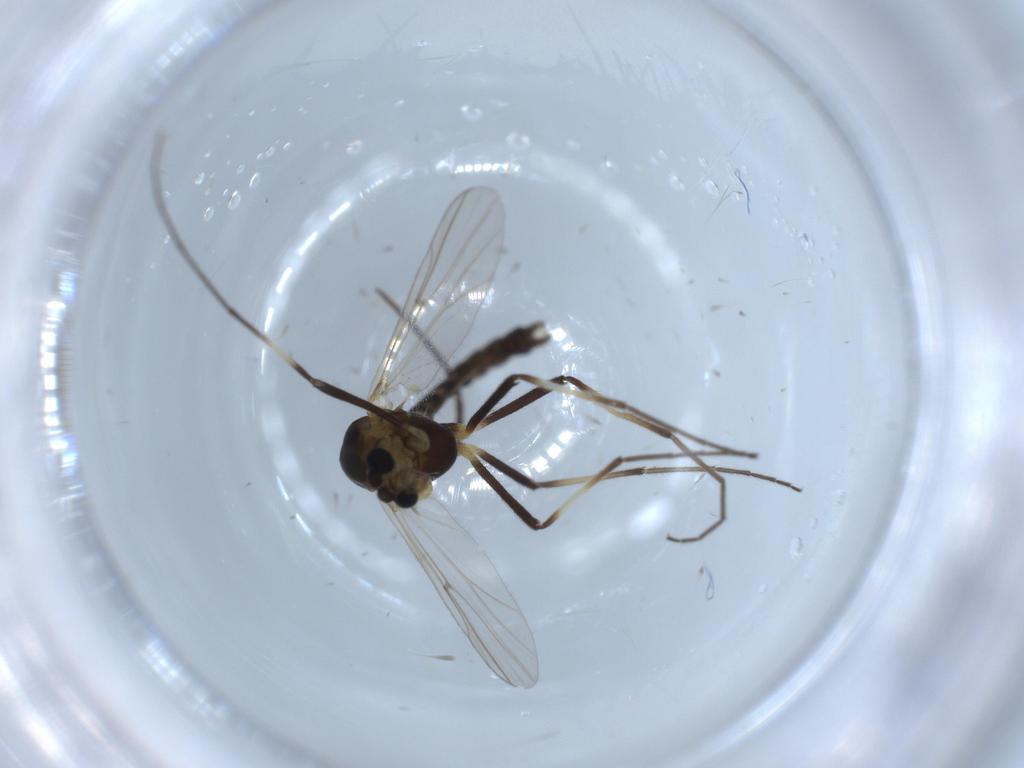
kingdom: Animalia
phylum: Arthropoda
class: Insecta
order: Diptera
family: Chironomidae
